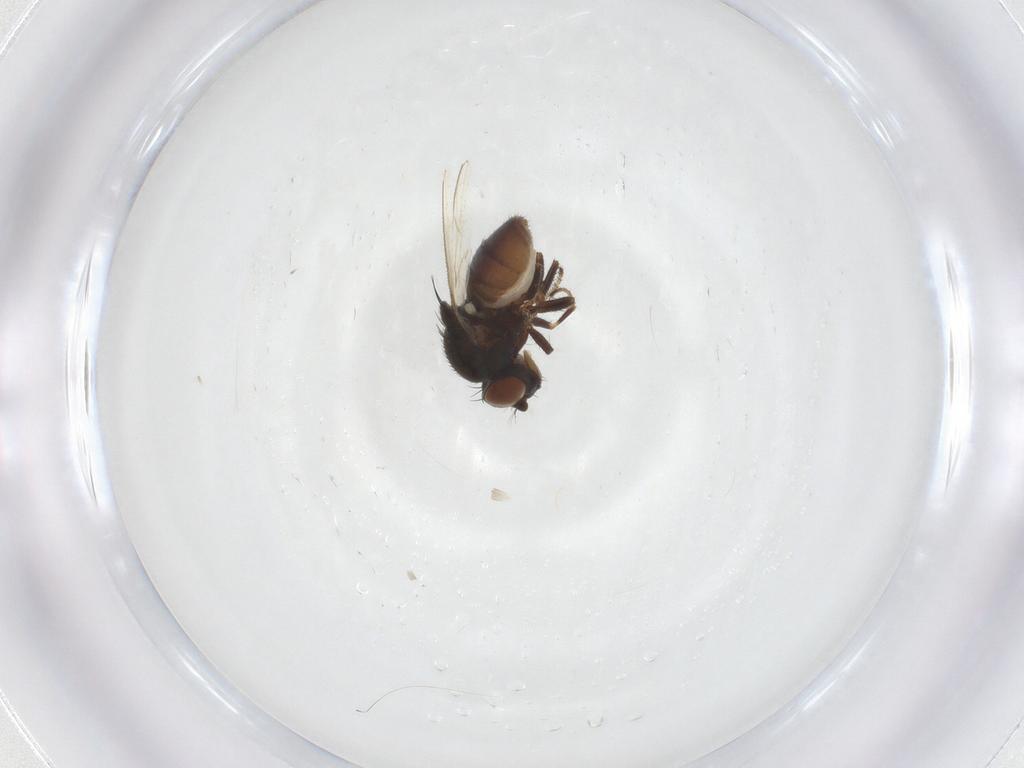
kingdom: Animalia
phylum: Arthropoda
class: Insecta
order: Diptera
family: Ephydridae
